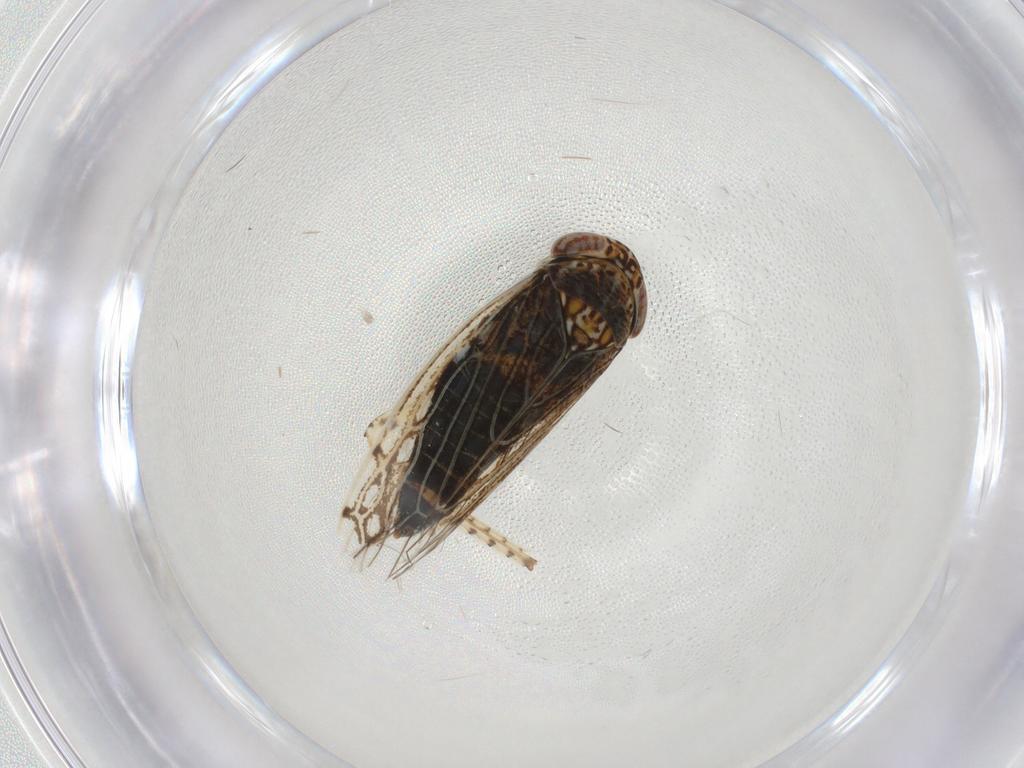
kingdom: Animalia
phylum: Arthropoda
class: Insecta
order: Hemiptera
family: Cicadellidae
